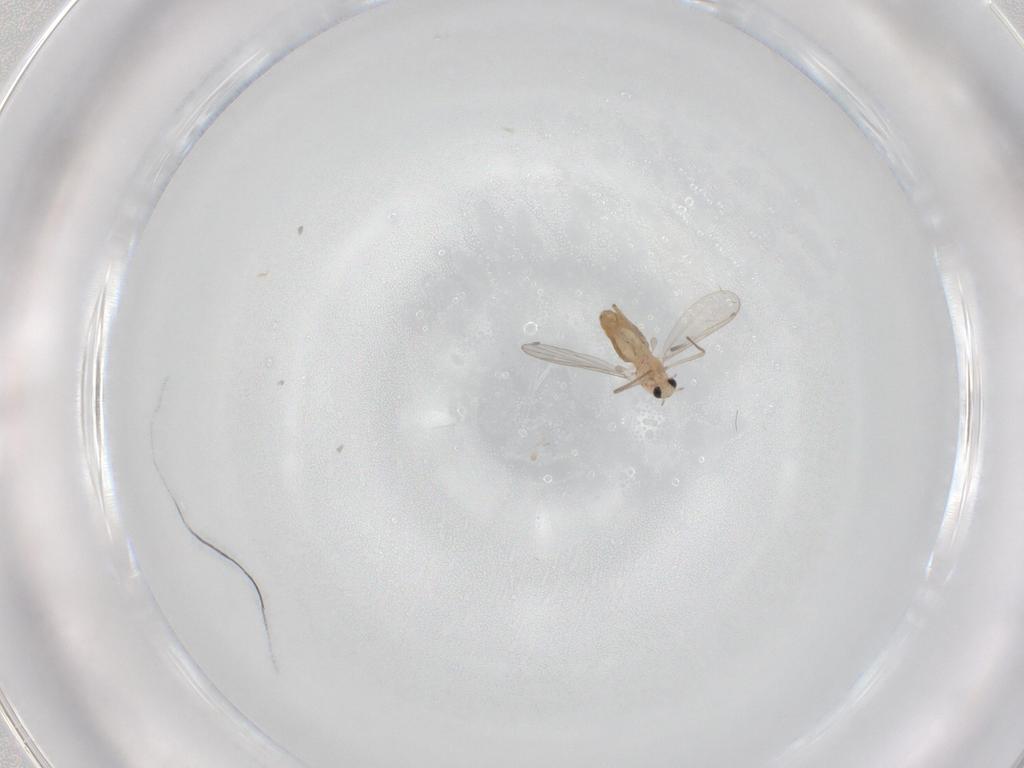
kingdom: Animalia
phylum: Arthropoda
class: Insecta
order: Diptera
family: Chironomidae
